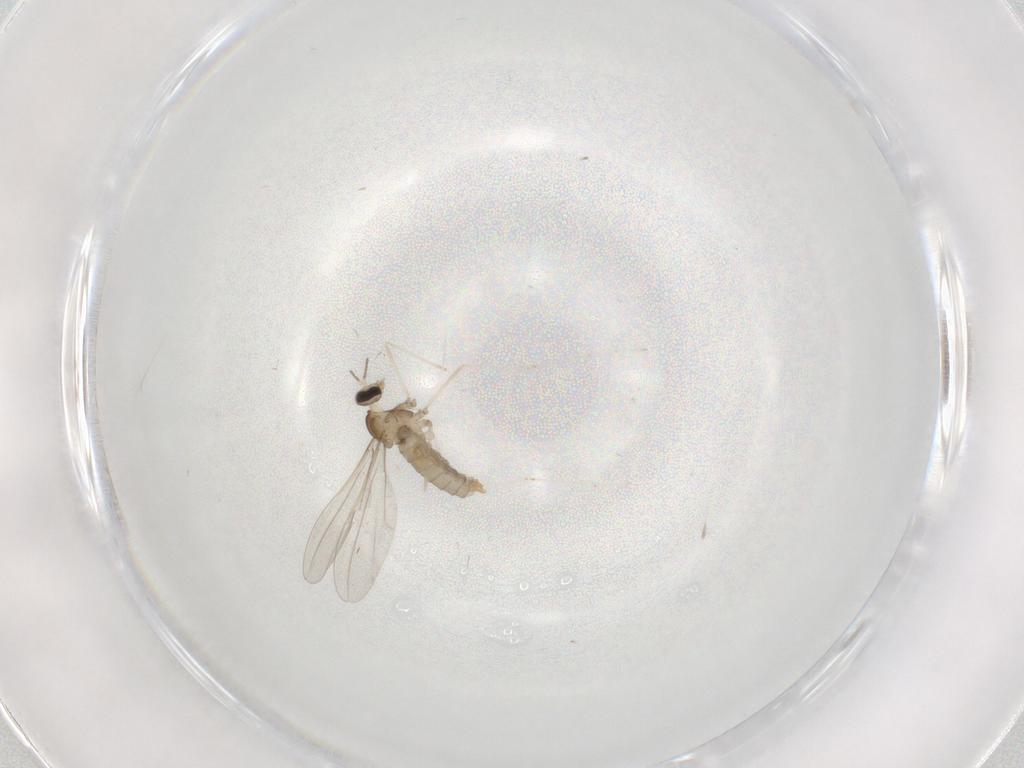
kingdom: Animalia
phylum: Arthropoda
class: Insecta
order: Diptera
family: Cecidomyiidae
